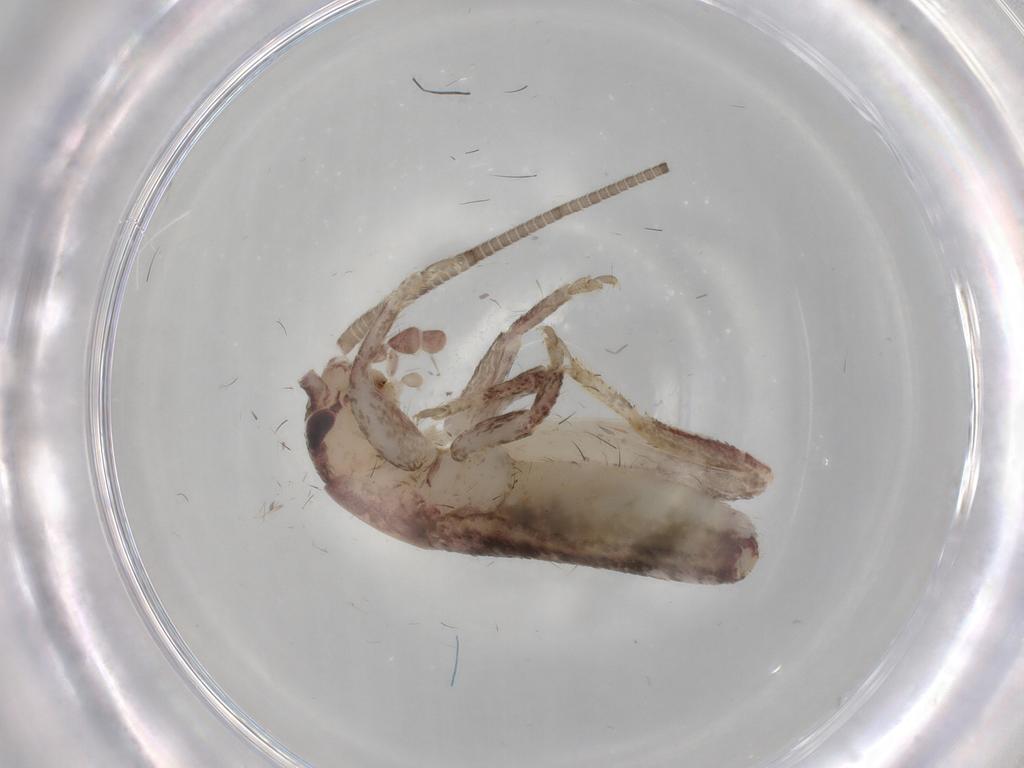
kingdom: Animalia
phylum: Arthropoda
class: Insecta
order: Orthoptera
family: Mogoplistidae
